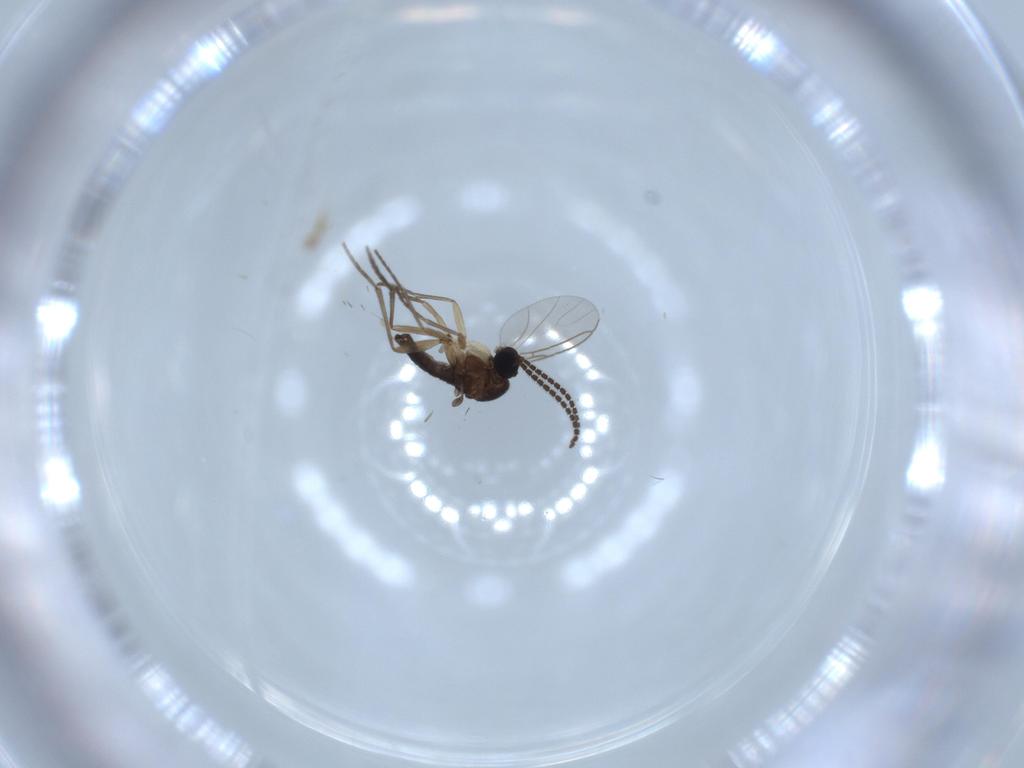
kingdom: Animalia
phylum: Arthropoda
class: Insecta
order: Diptera
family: Sciaridae
